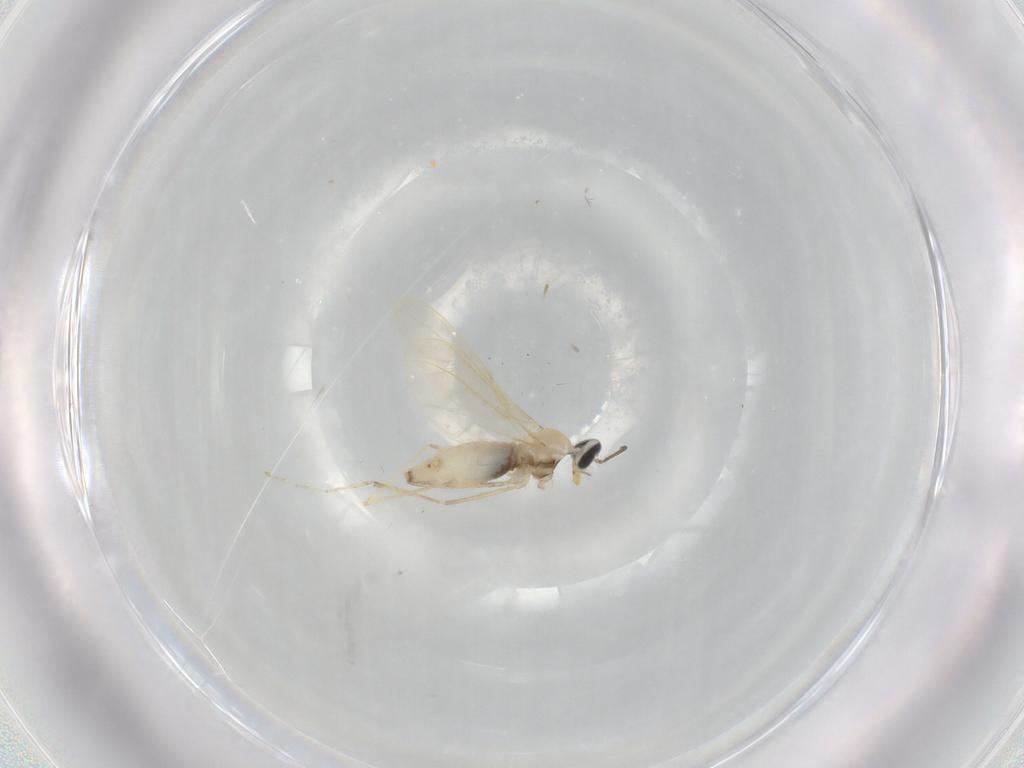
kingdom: Animalia
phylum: Arthropoda
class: Insecta
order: Diptera
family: Cecidomyiidae
